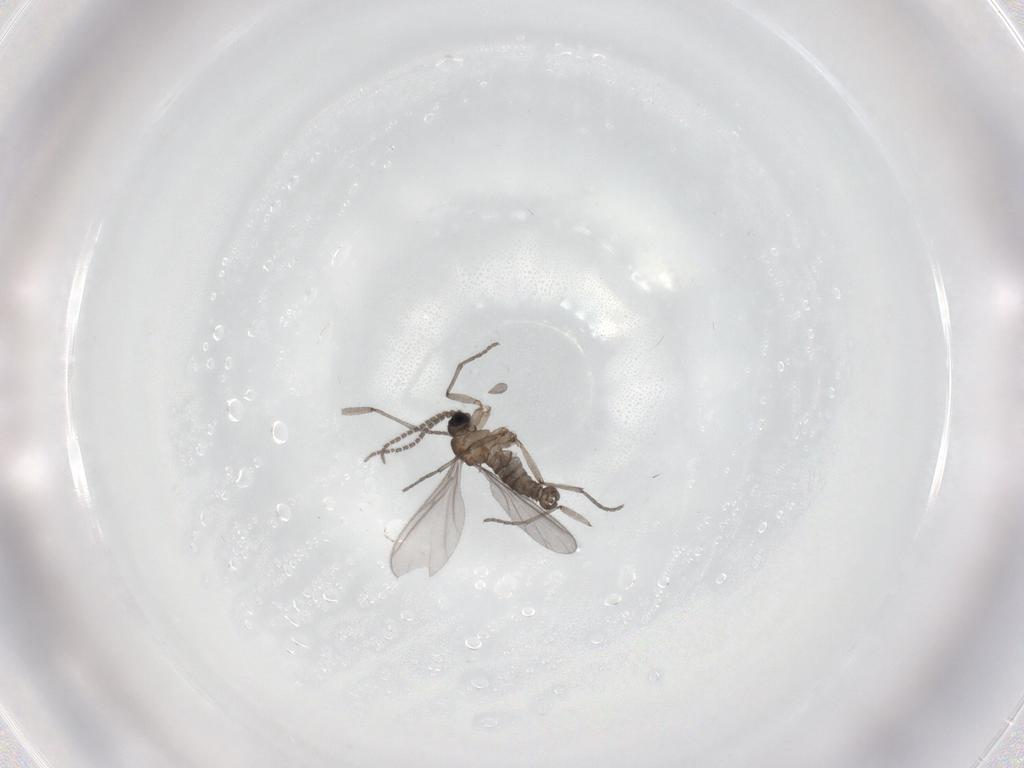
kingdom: Animalia
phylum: Arthropoda
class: Insecta
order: Diptera
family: Sciaridae
